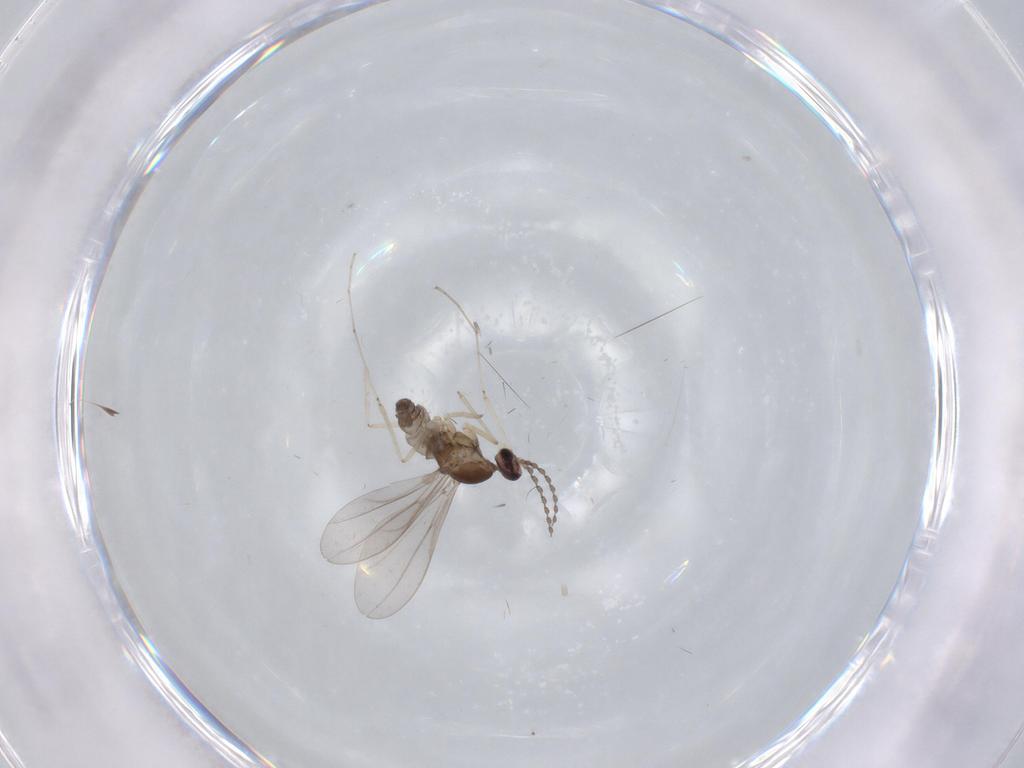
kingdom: Animalia
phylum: Arthropoda
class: Insecta
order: Diptera
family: Cecidomyiidae
